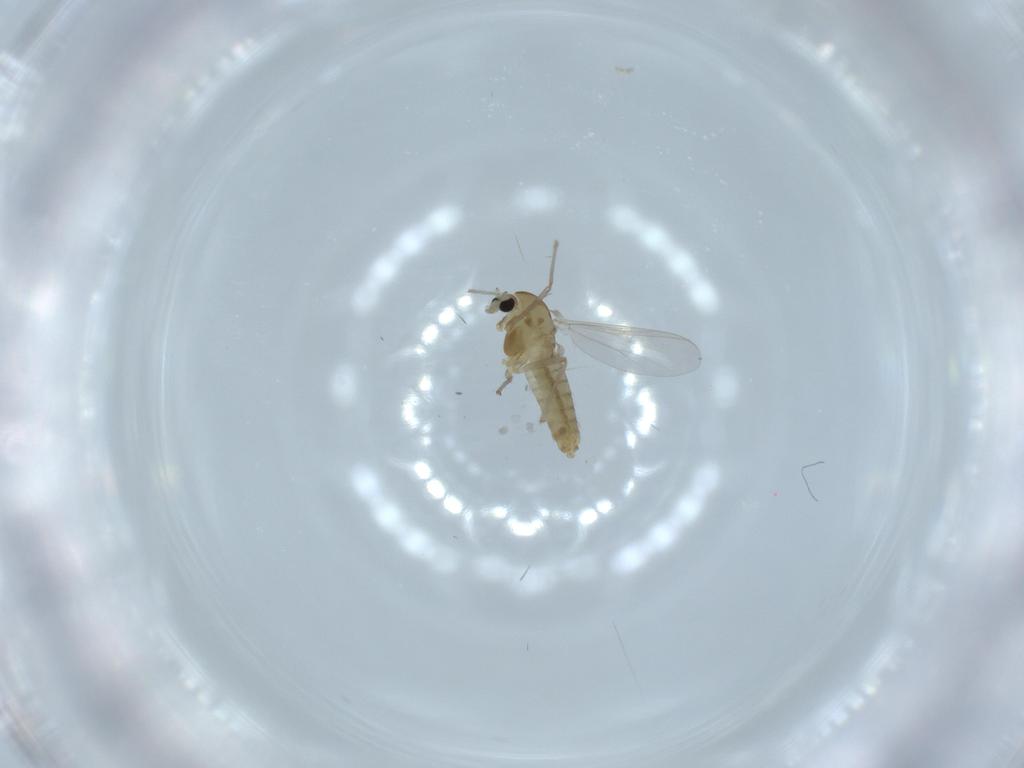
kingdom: Animalia
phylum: Arthropoda
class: Insecta
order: Diptera
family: Chironomidae
